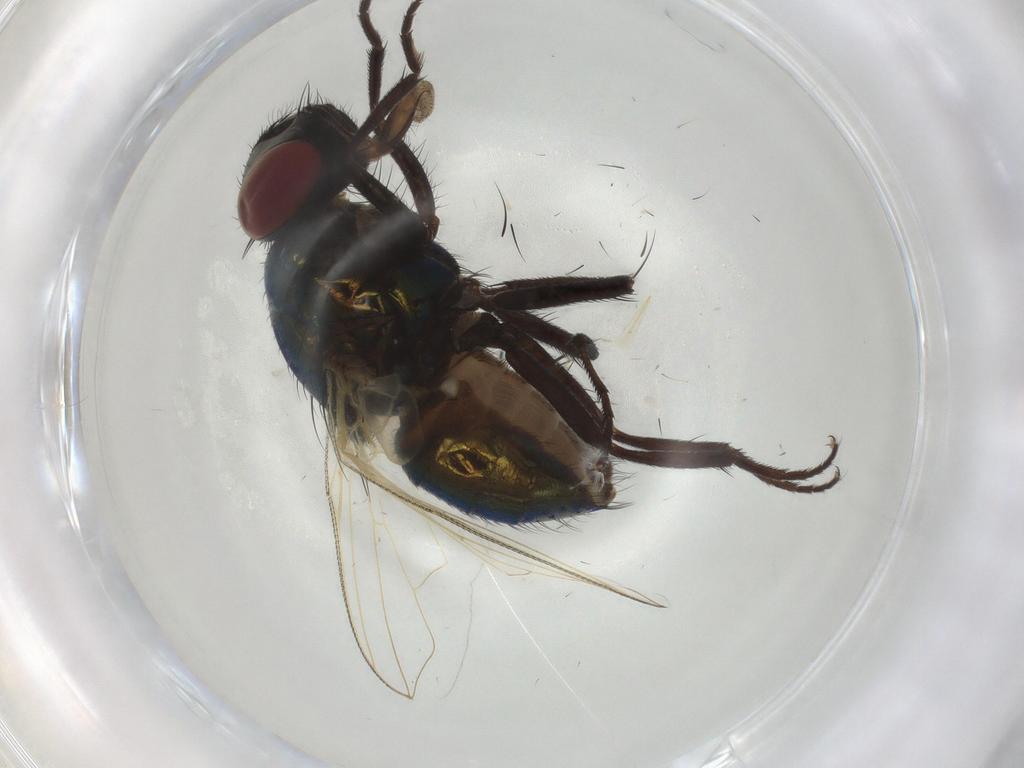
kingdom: Animalia
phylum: Arthropoda
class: Insecta
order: Diptera
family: Muscidae
